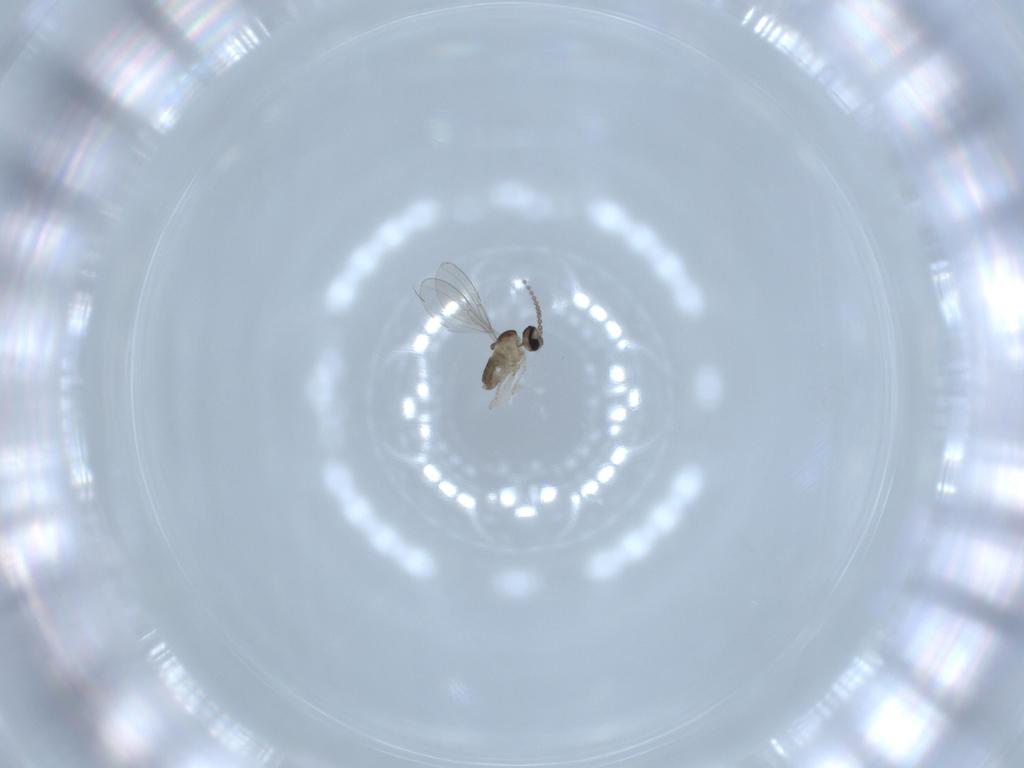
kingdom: Animalia
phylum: Arthropoda
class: Insecta
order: Diptera
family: Cecidomyiidae
